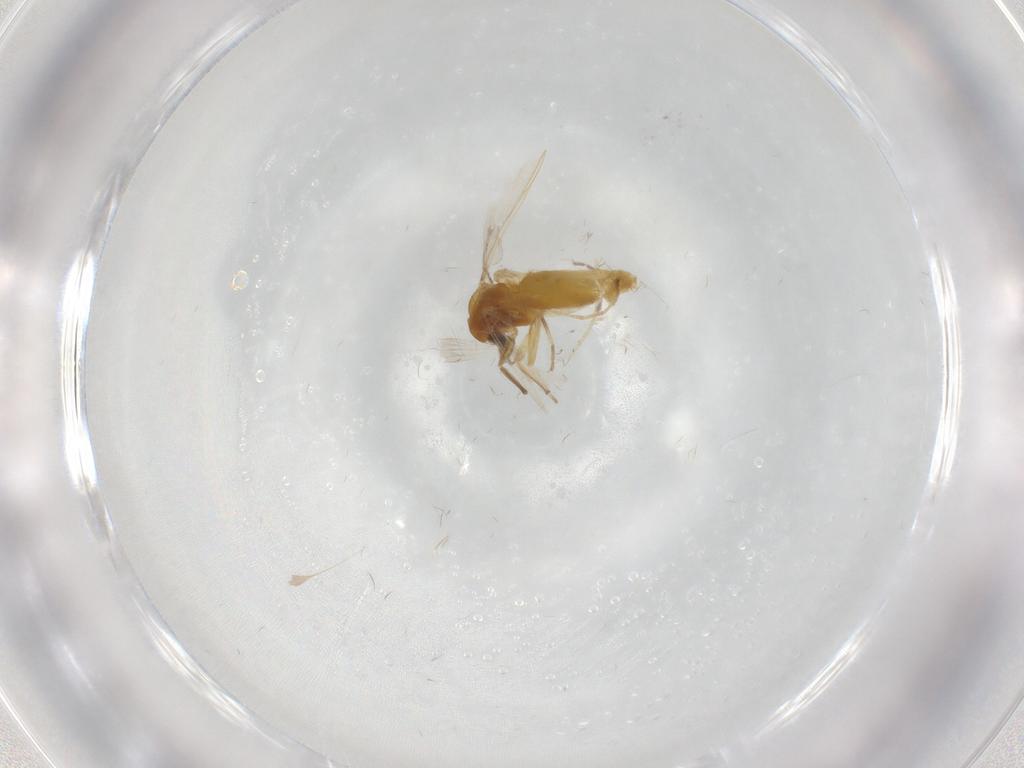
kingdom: Animalia
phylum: Arthropoda
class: Insecta
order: Diptera
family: Chironomidae
